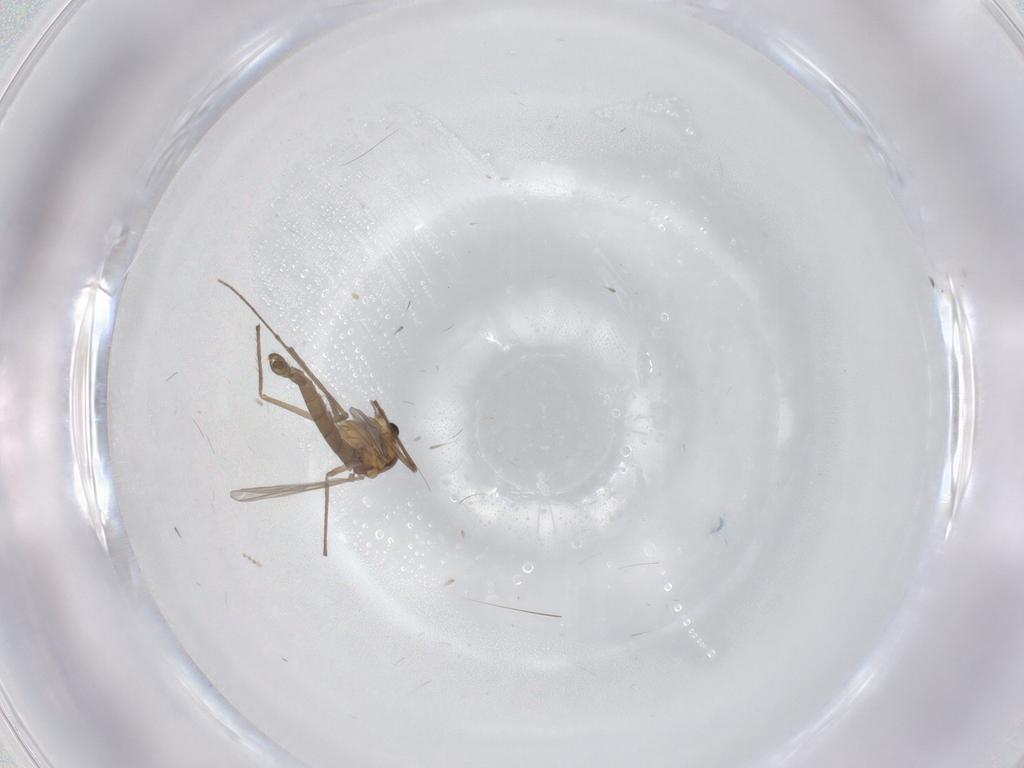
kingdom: Animalia
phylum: Arthropoda
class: Insecta
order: Diptera
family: Chironomidae
